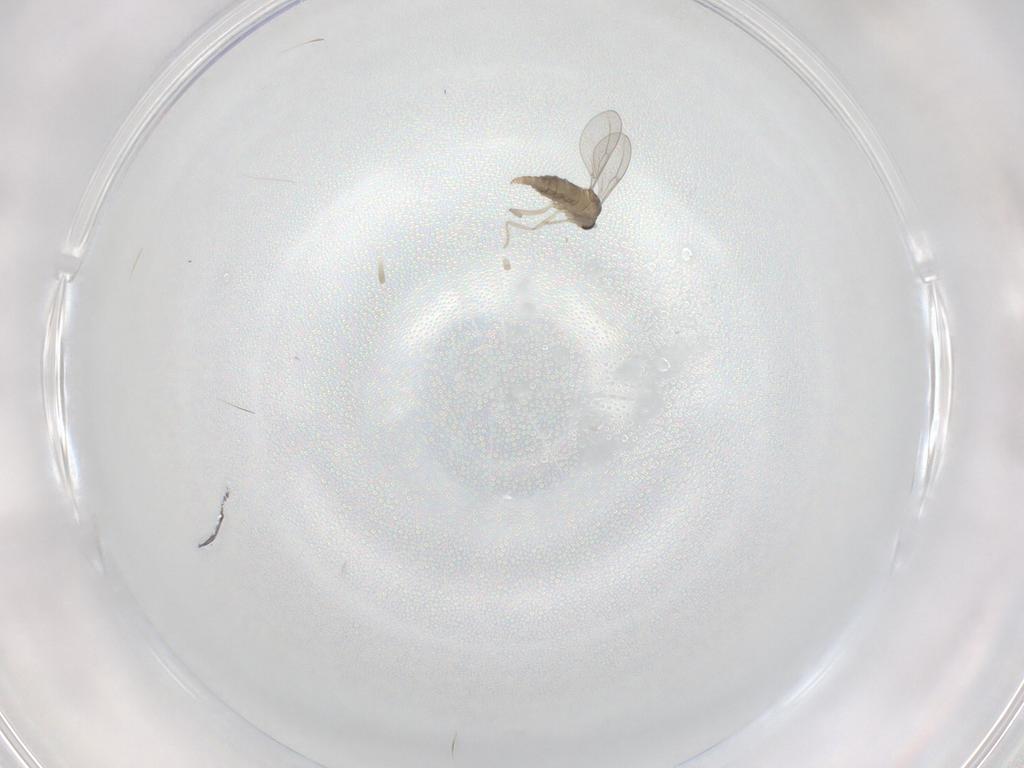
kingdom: Animalia
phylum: Arthropoda
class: Insecta
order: Diptera
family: Cecidomyiidae
